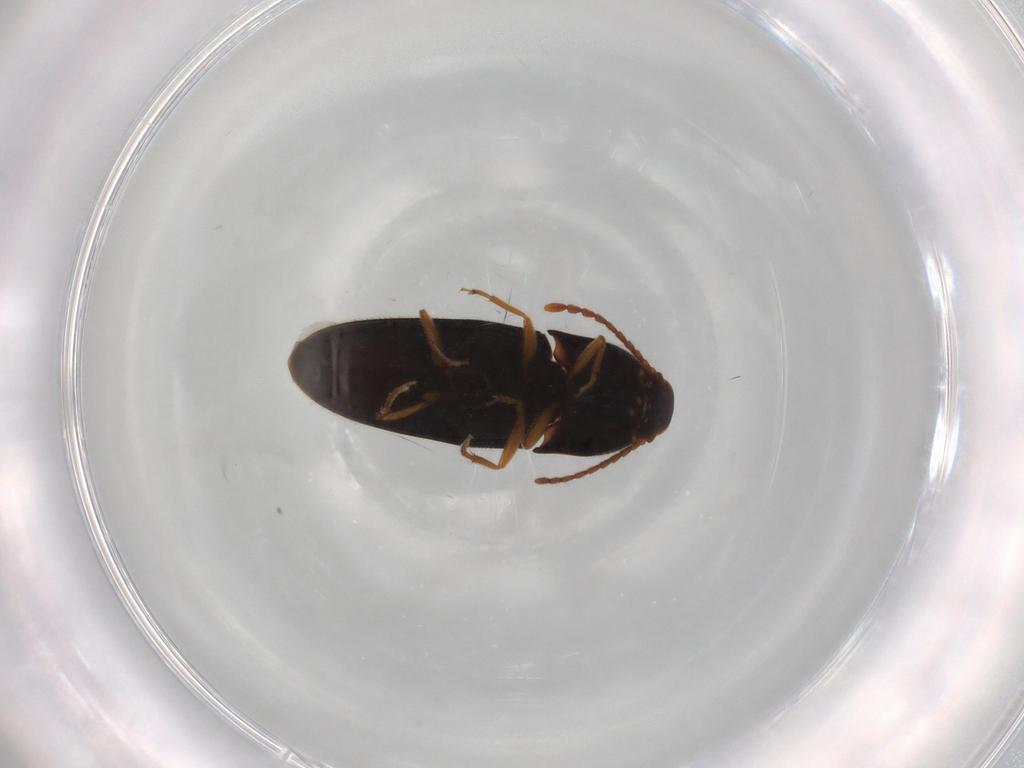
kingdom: Animalia
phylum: Arthropoda
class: Insecta
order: Coleoptera
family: Elateridae
